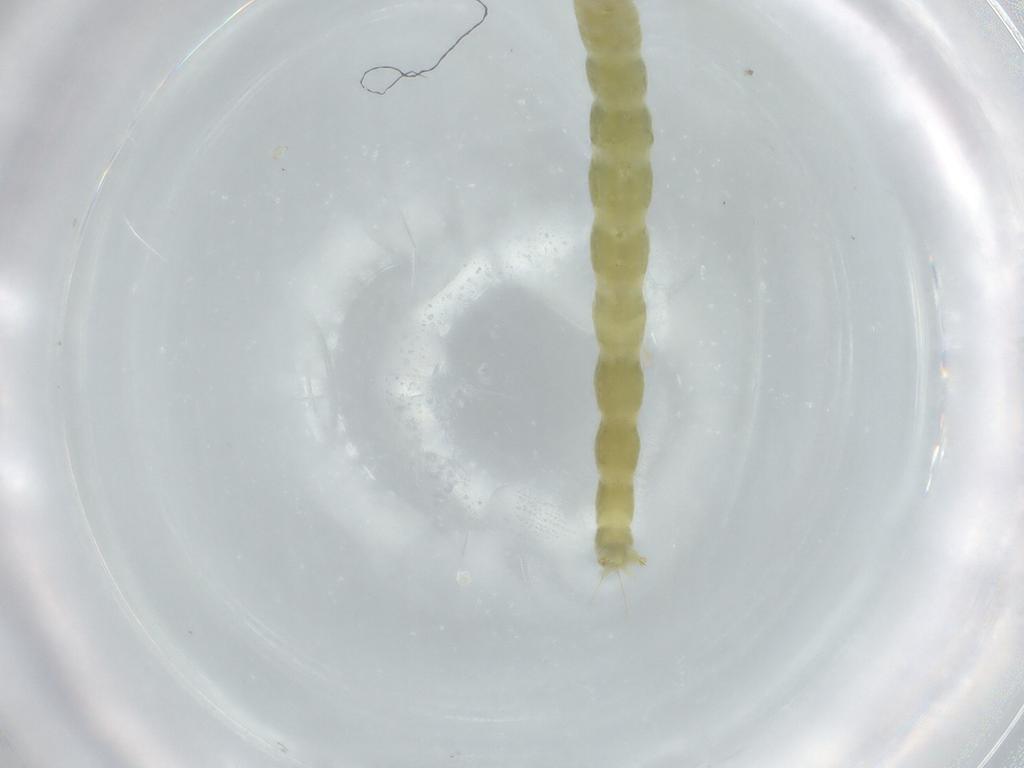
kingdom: Animalia
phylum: Arthropoda
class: Insecta
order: Diptera
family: Chironomidae
